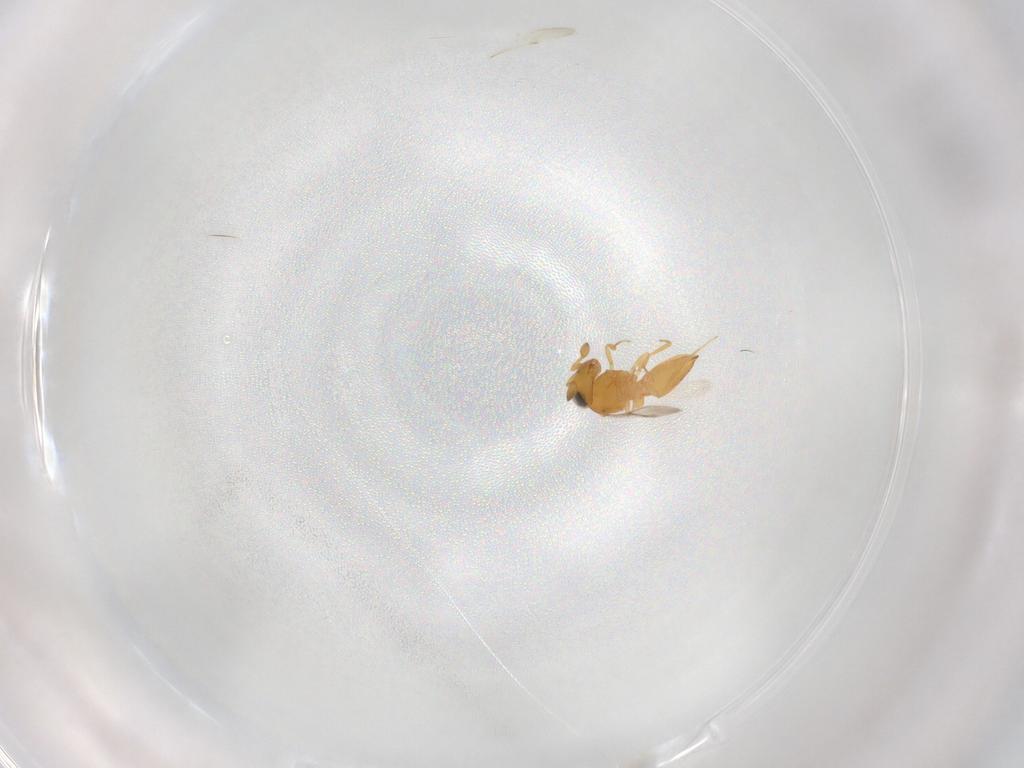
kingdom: Animalia
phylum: Arthropoda
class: Insecta
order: Hymenoptera
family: Scelionidae
